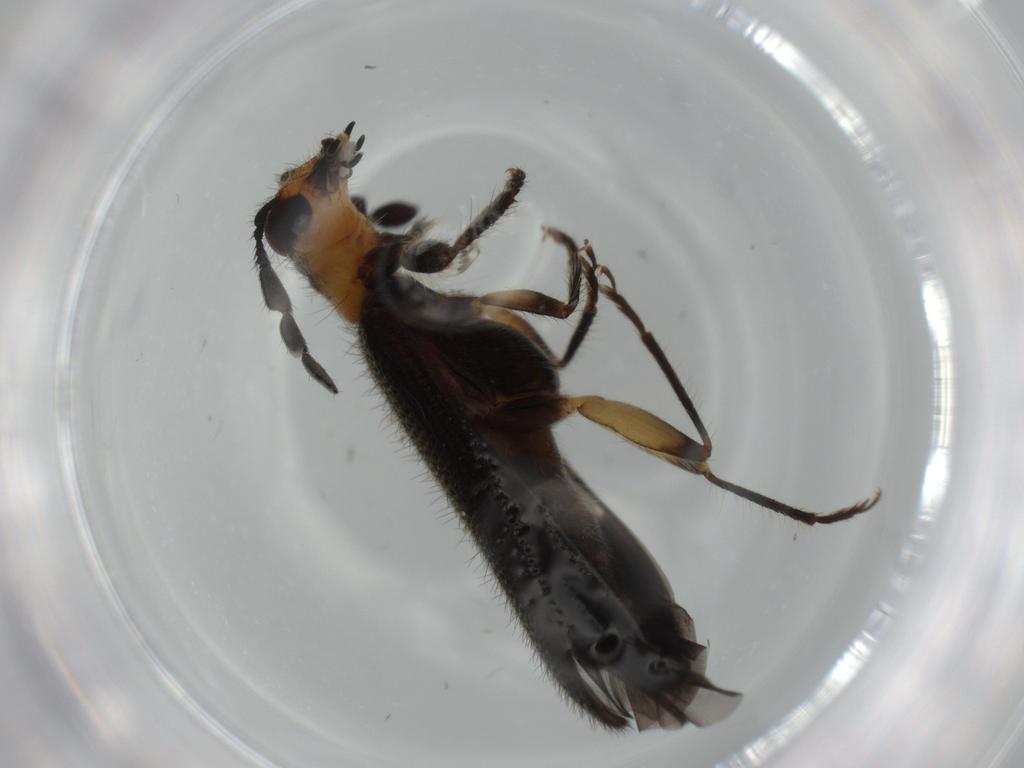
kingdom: Animalia
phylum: Arthropoda
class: Insecta
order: Coleoptera
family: Cleridae
